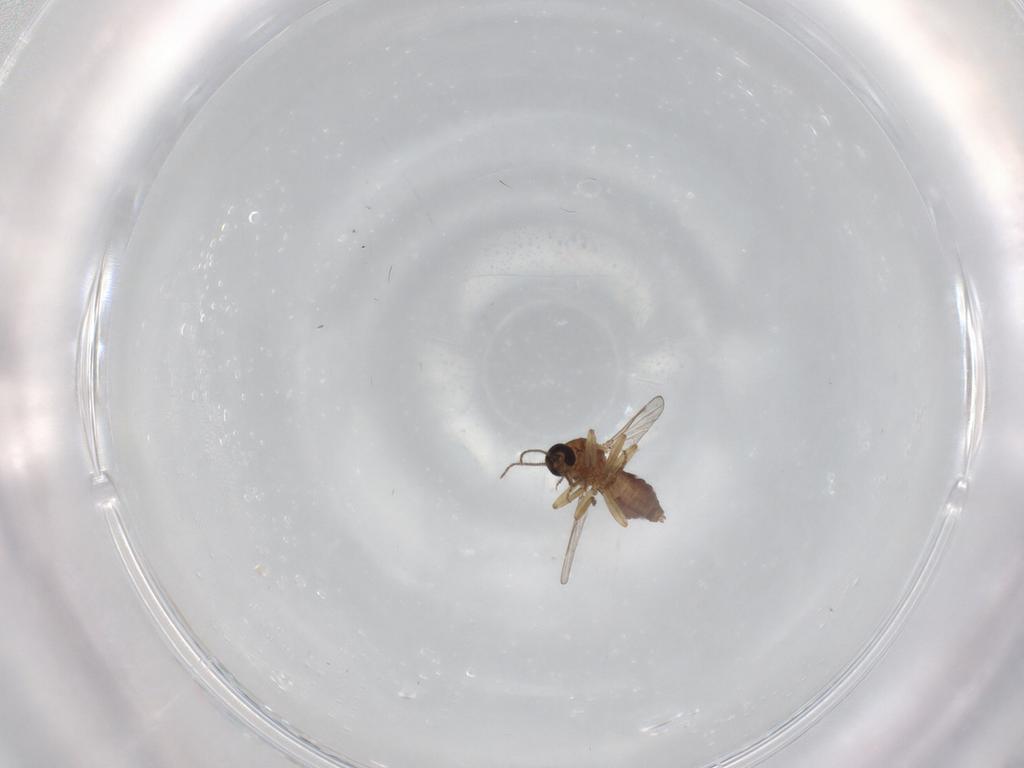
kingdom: Animalia
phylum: Arthropoda
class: Insecta
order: Diptera
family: Ceratopogonidae
